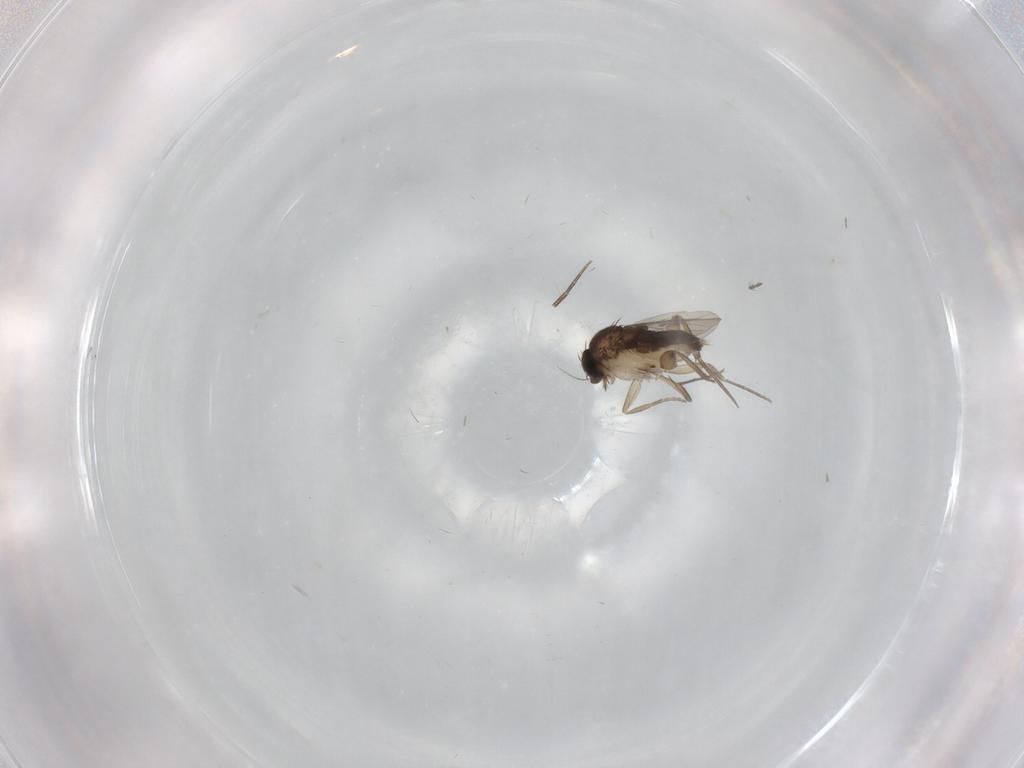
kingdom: Animalia
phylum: Arthropoda
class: Insecta
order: Diptera
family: Phoridae
